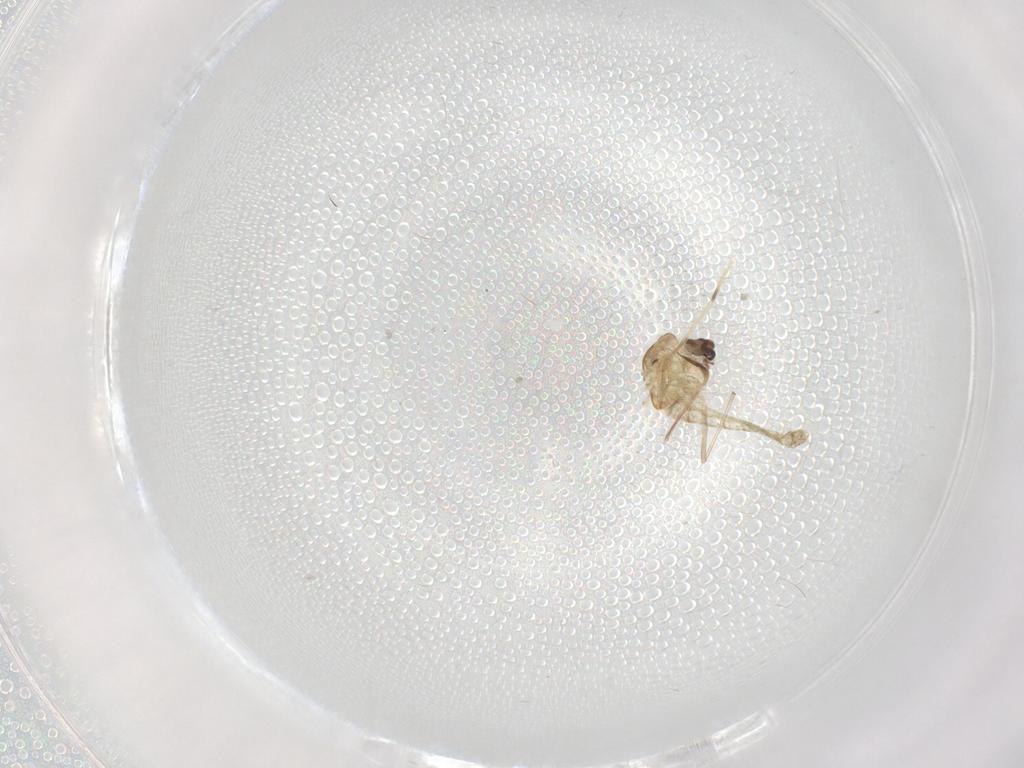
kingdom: Animalia
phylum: Arthropoda
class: Insecta
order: Diptera
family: Chironomidae
